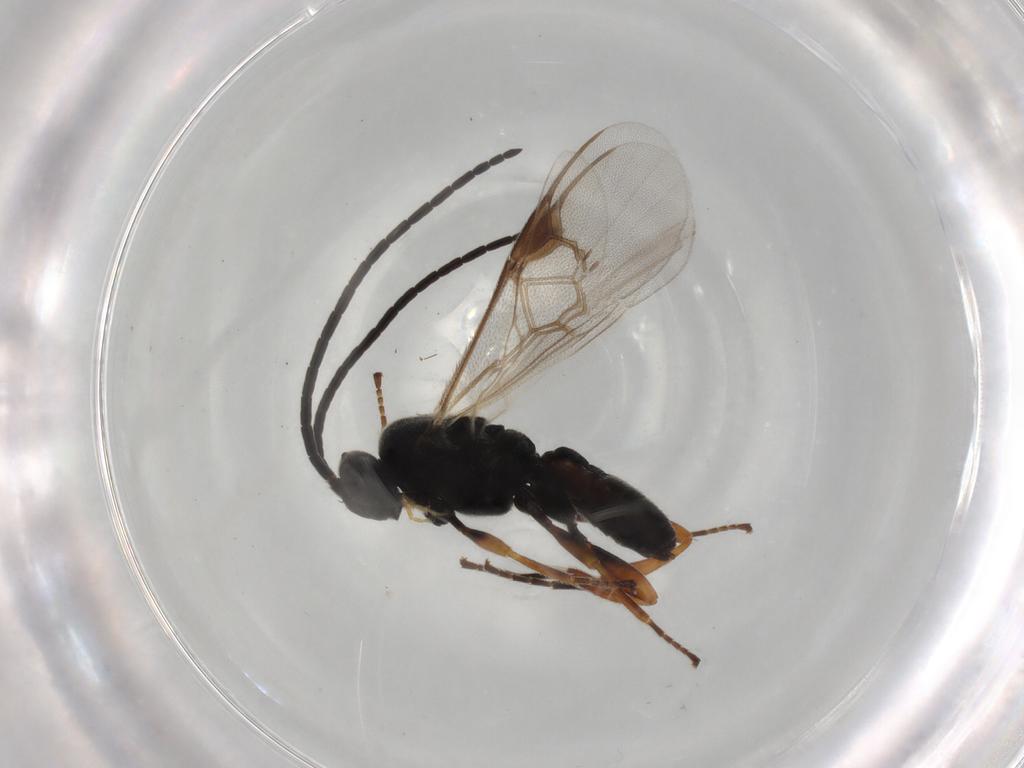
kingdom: Animalia
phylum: Arthropoda
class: Insecta
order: Hymenoptera
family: Braconidae
